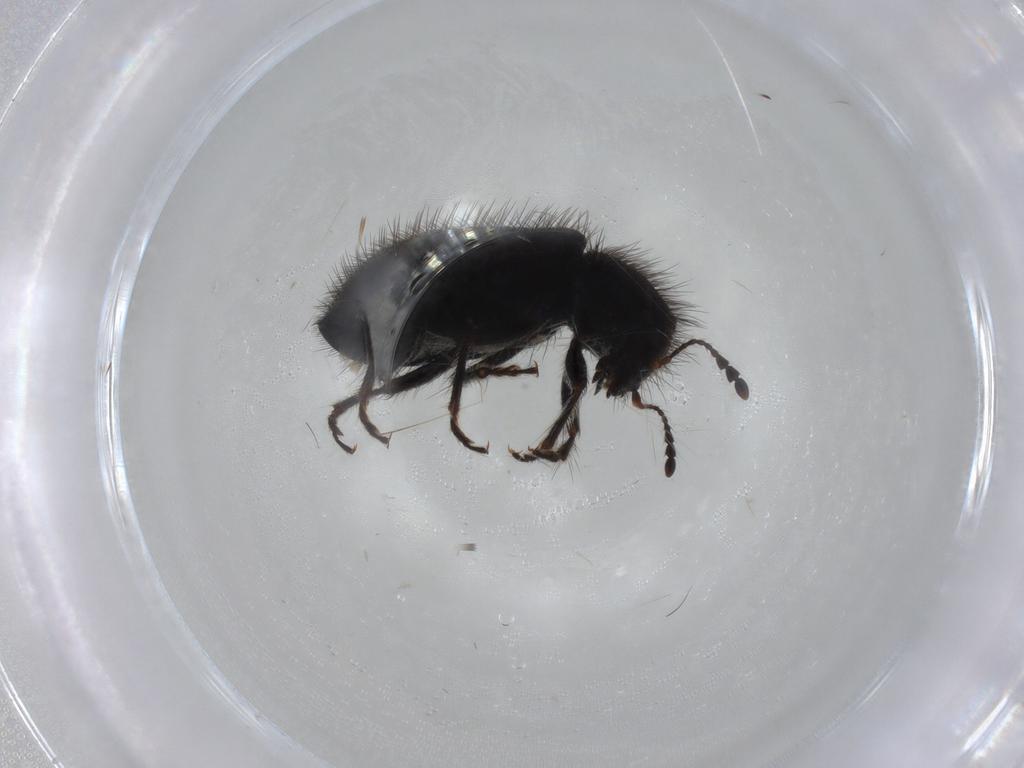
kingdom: Animalia
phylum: Arthropoda
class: Insecta
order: Coleoptera
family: Cleridae
